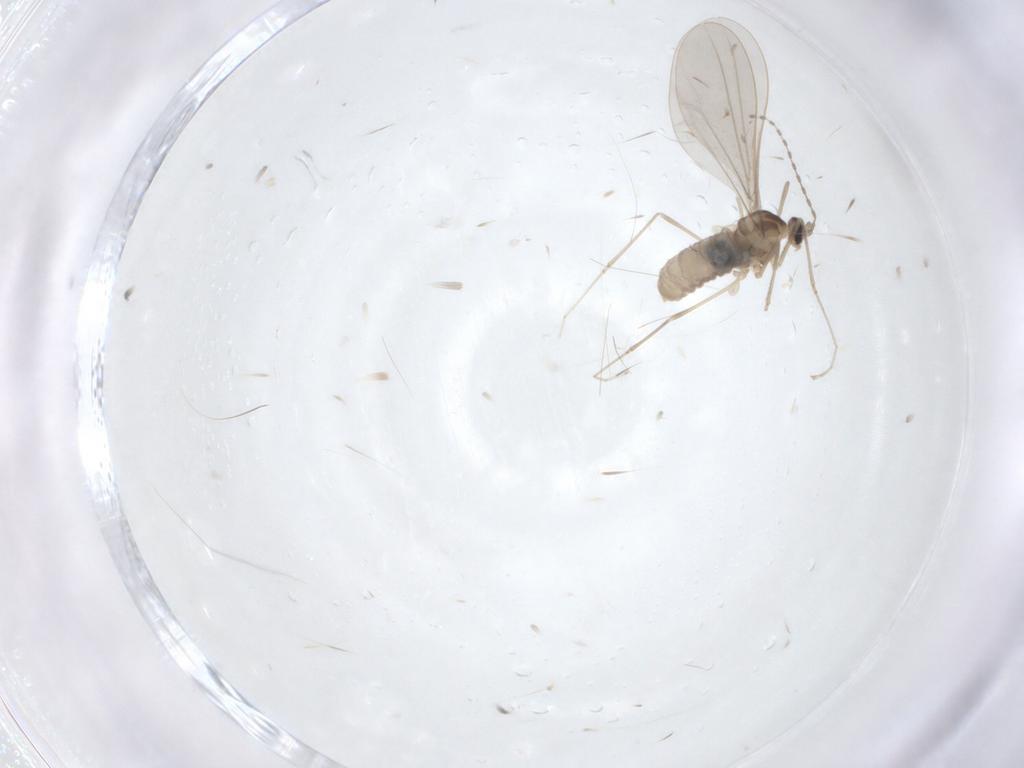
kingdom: Animalia
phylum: Arthropoda
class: Insecta
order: Diptera
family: Cecidomyiidae
